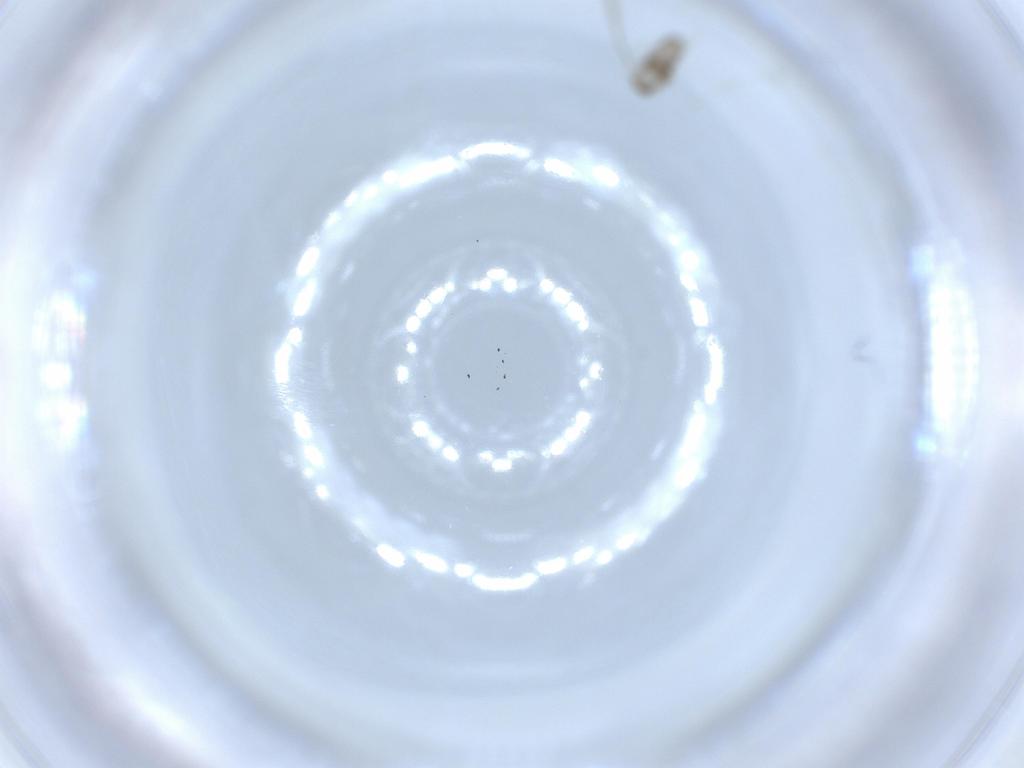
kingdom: Animalia
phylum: Arthropoda
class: Insecta
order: Diptera
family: Cecidomyiidae
